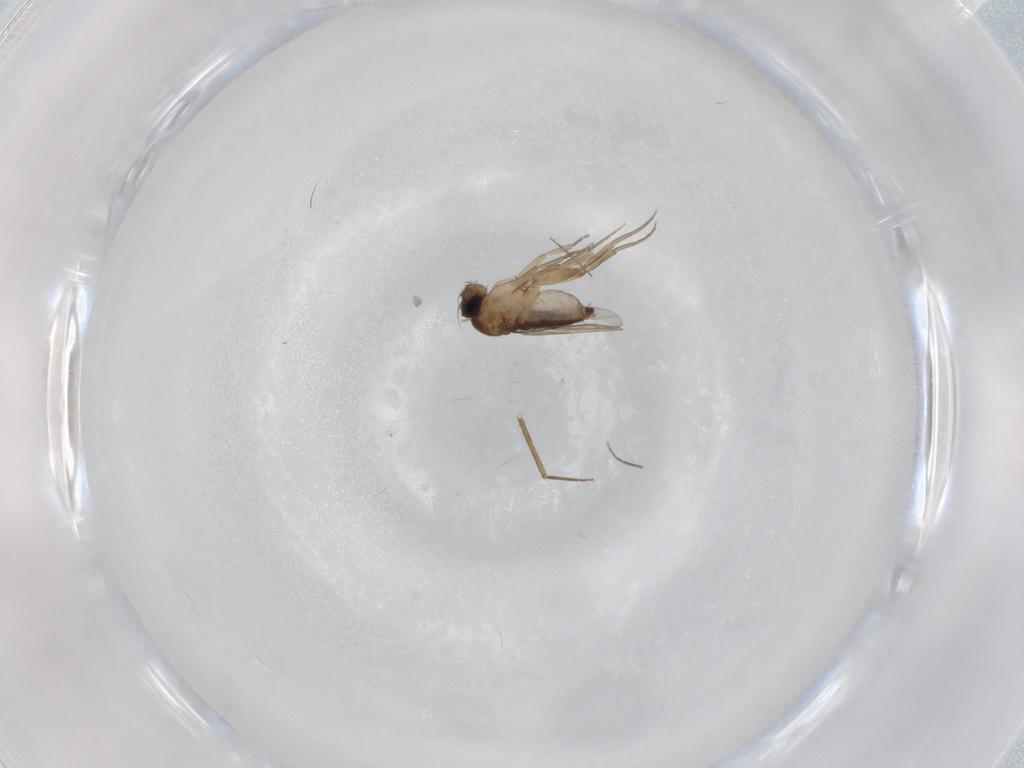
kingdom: Animalia
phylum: Arthropoda
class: Insecta
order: Diptera
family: Phoridae
